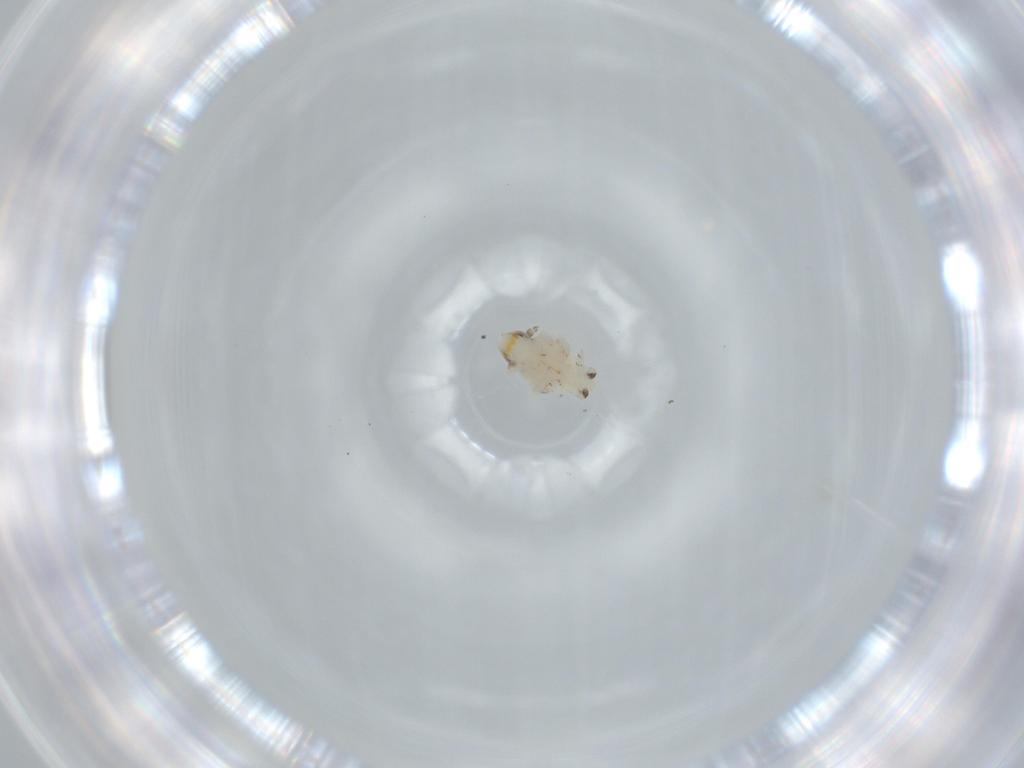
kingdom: Animalia
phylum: Arthropoda
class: Insecta
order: Hemiptera
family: Nogodinidae
